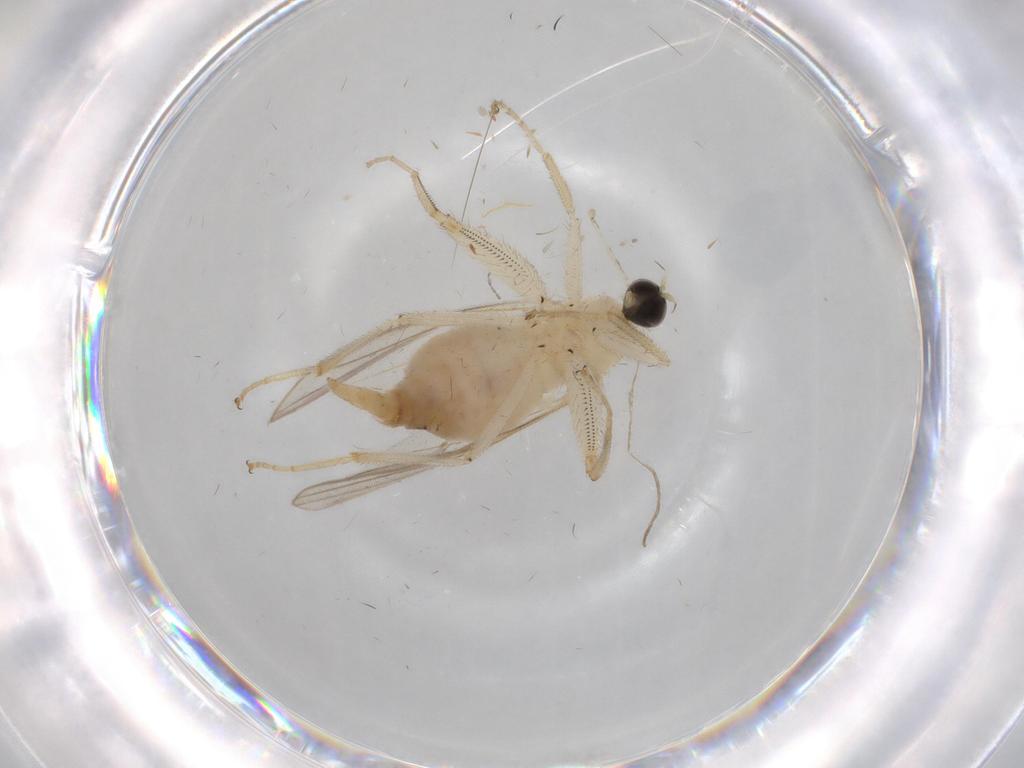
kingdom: Animalia
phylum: Arthropoda
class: Insecta
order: Diptera
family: Hybotidae
